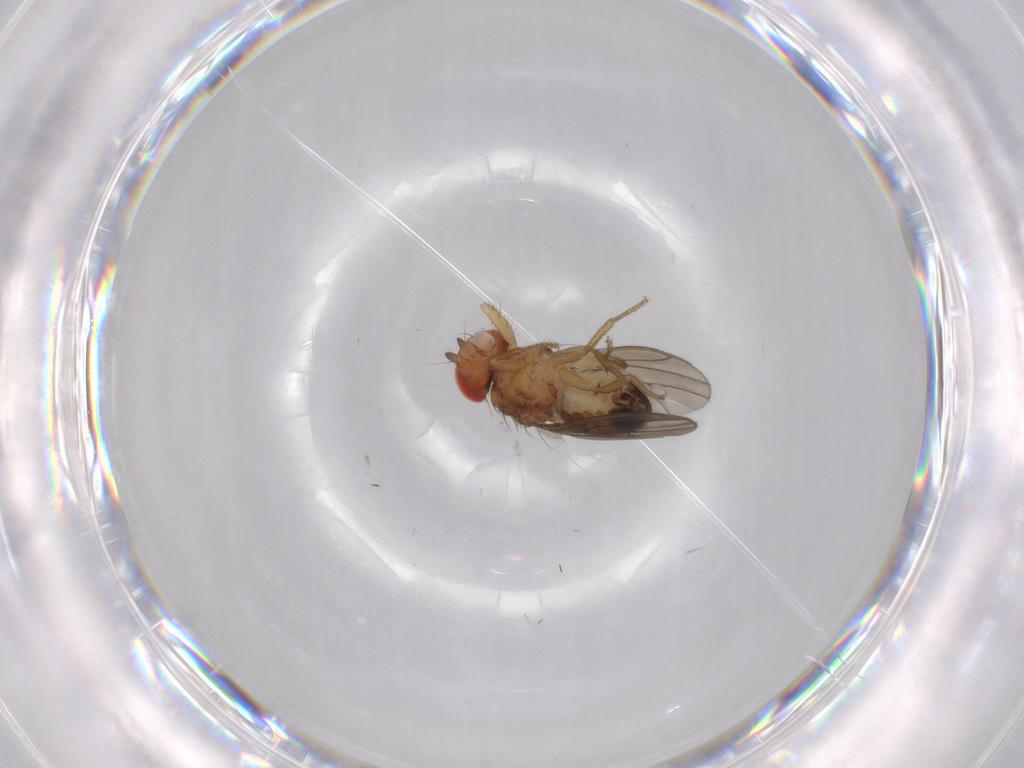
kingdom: Animalia
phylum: Arthropoda
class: Insecta
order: Diptera
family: Drosophilidae
